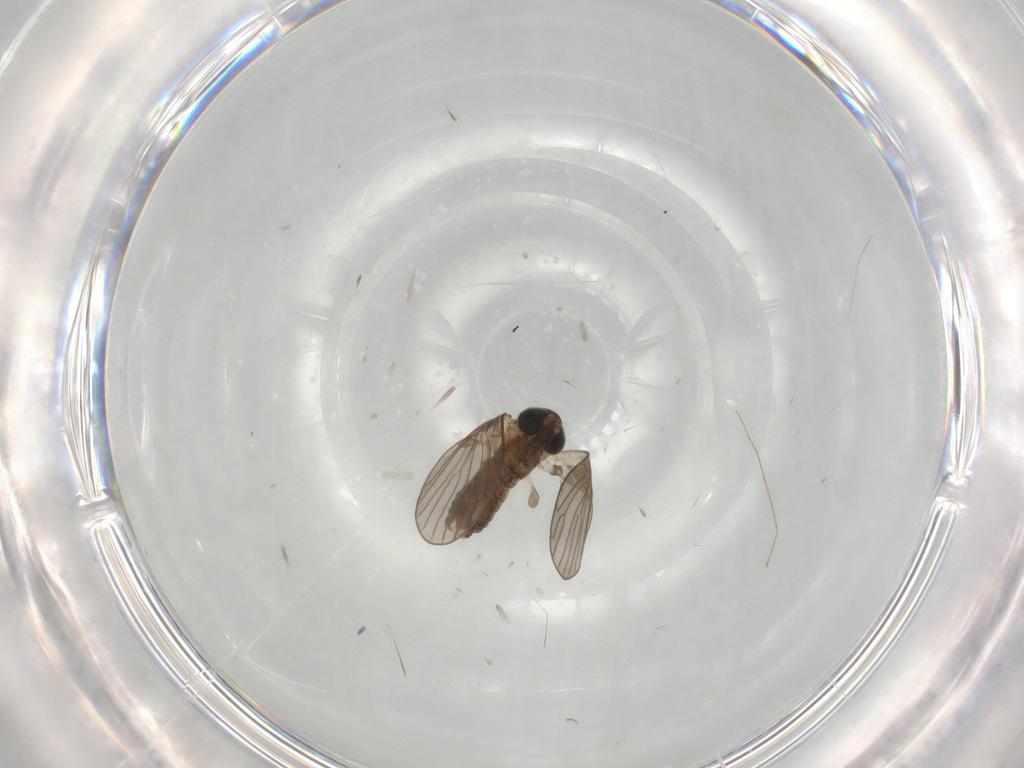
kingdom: Animalia
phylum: Arthropoda
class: Insecta
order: Diptera
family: Psychodidae
